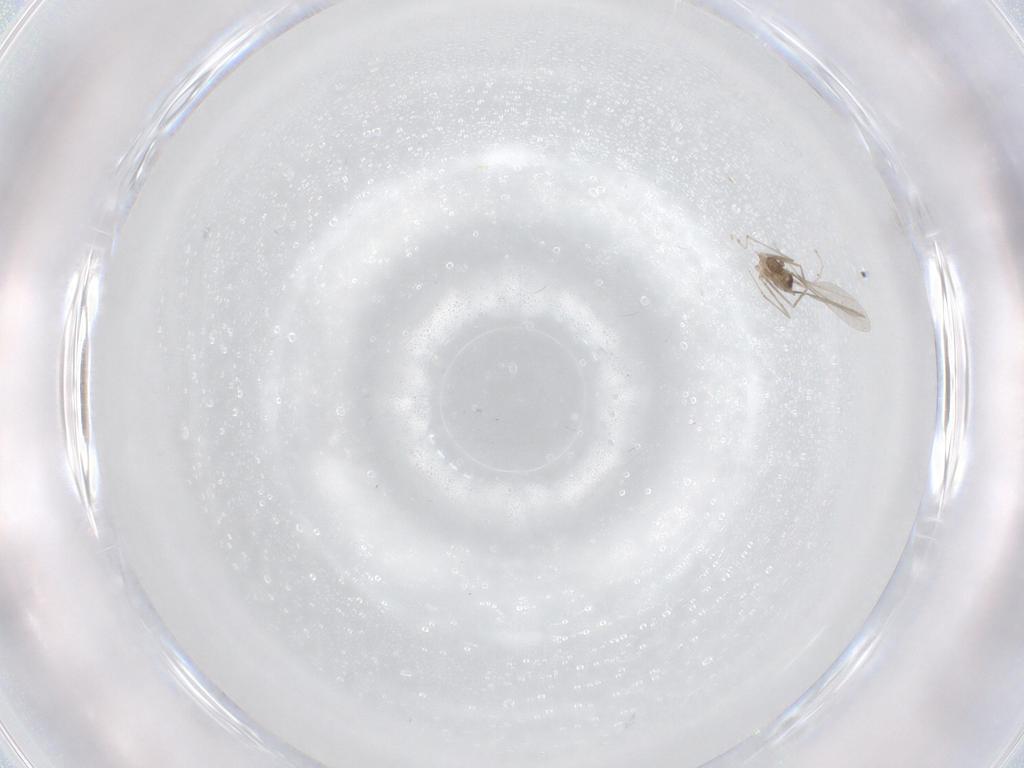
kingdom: Animalia
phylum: Arthropoda
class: Insecta
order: Diptera
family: Cecidomyiidae
